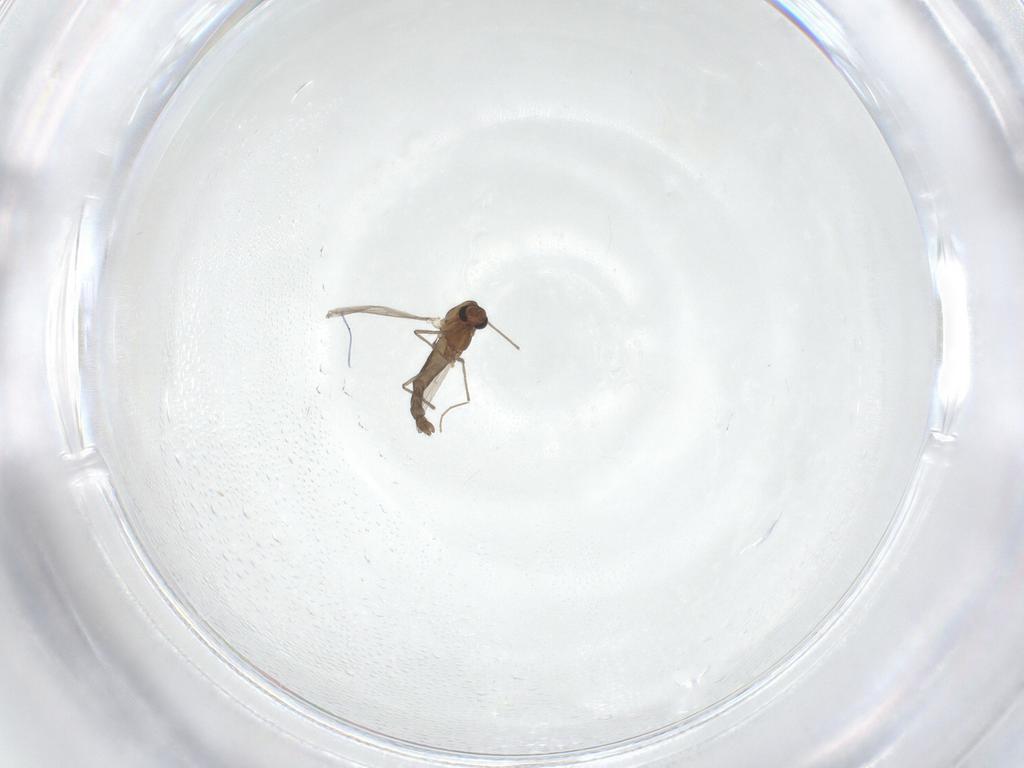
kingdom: Animalia
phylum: Arthropoda
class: Insecta
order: Diptera
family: Chironomidae
